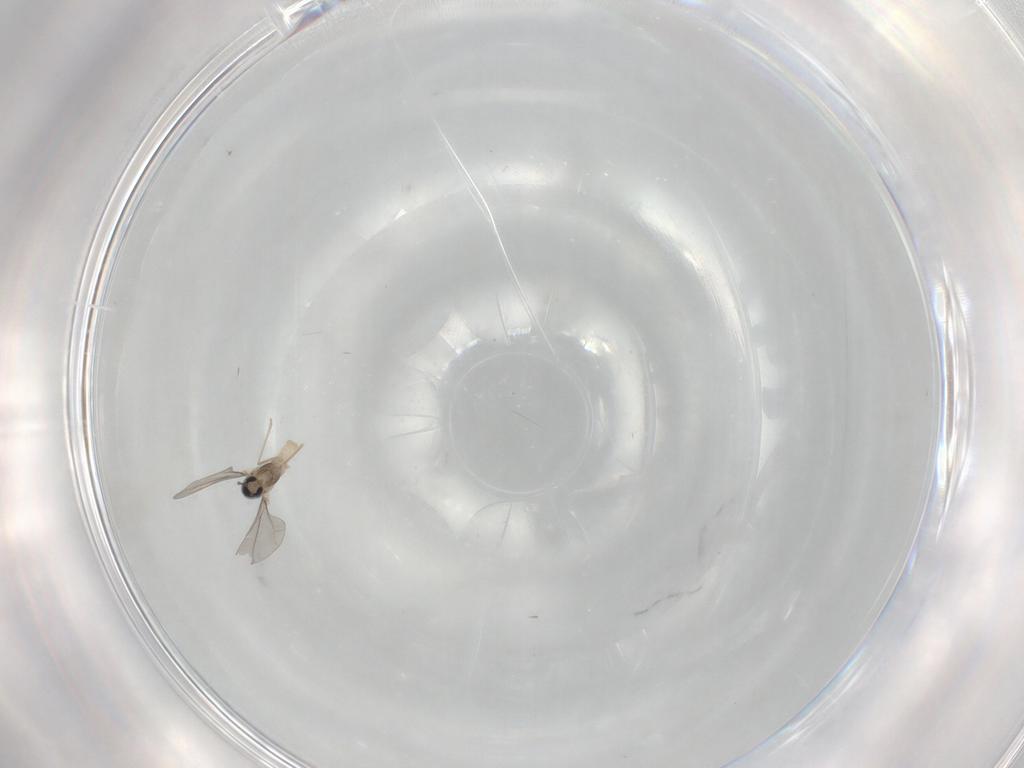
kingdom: Animalia
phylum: Arthropoda
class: Insecta
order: Diptera
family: Cecidomyiidae
